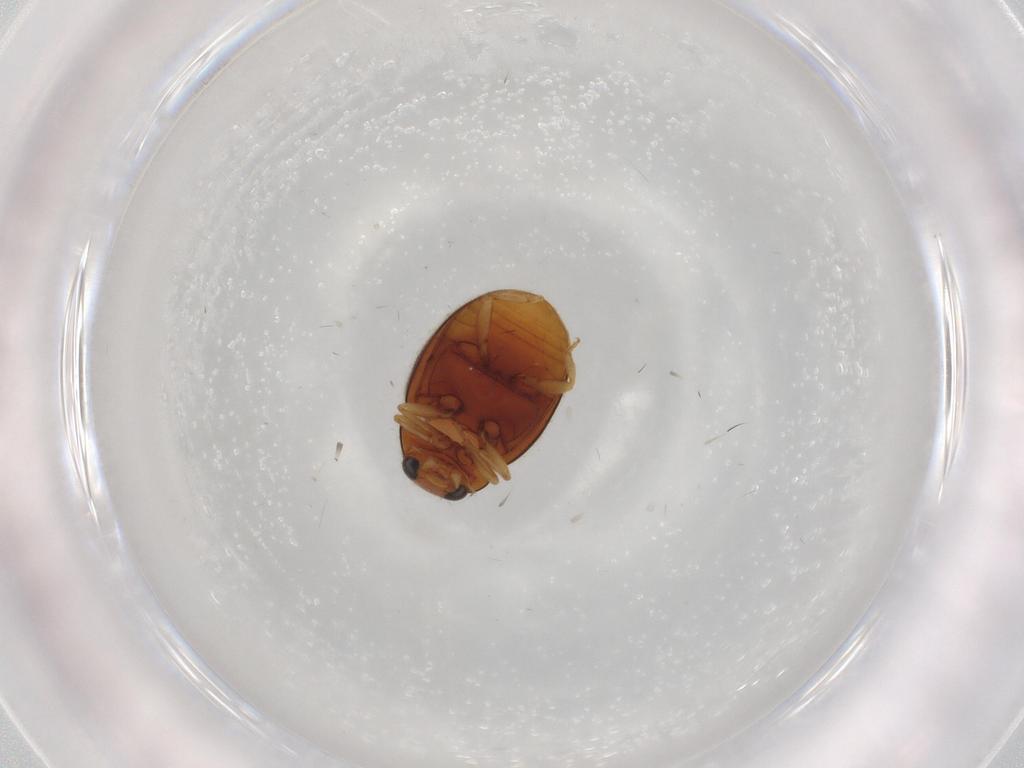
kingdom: Animalia
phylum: Arthropoda
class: Insecta
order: Coleoptera
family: Coccinellidae
